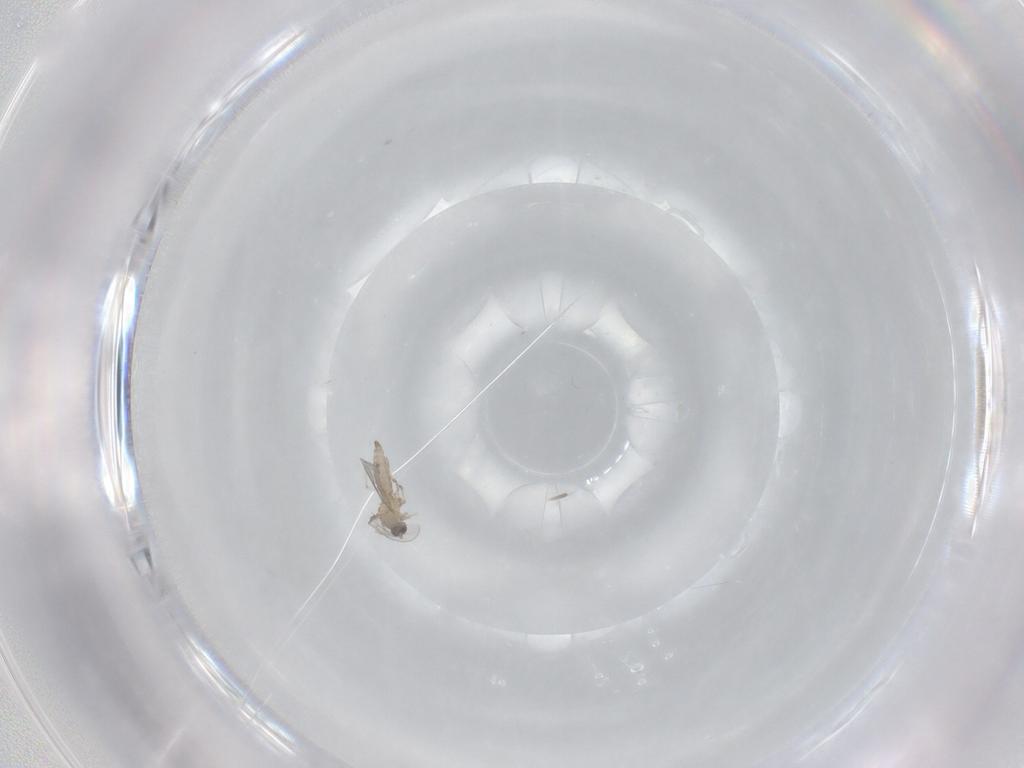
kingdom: Animalia
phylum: Arthropoda
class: Insecta
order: Diptera
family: Cecidomyiidae
